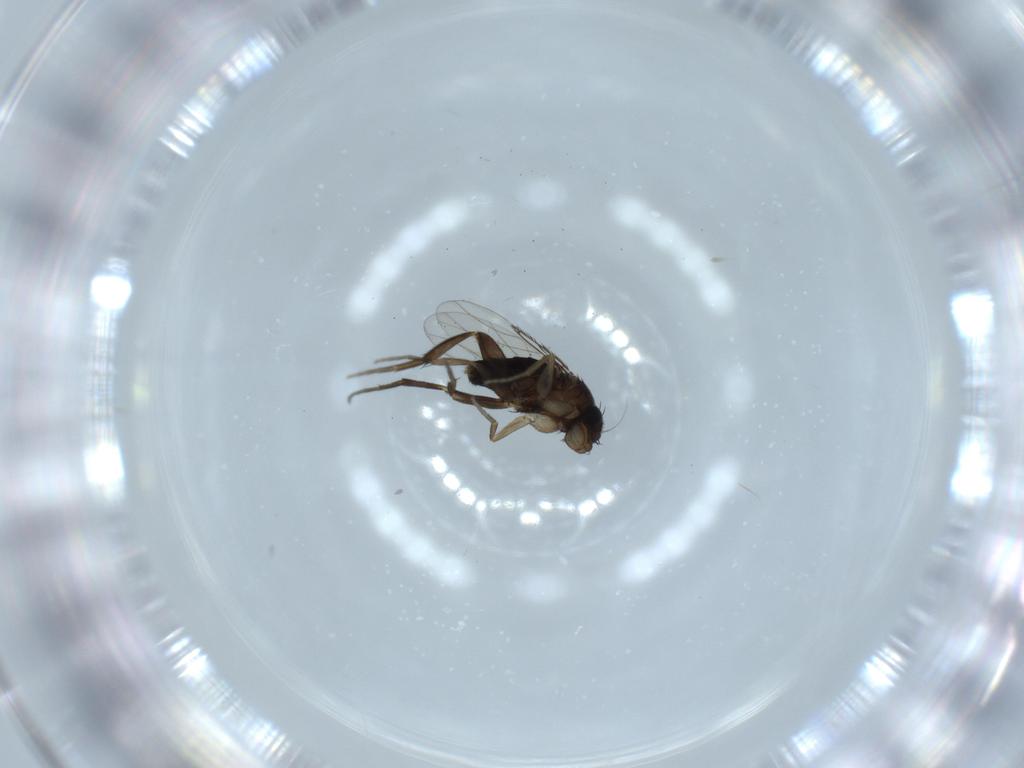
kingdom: Animalia
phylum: Arthropoda
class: Insecta
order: Diptera
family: Phoridae
